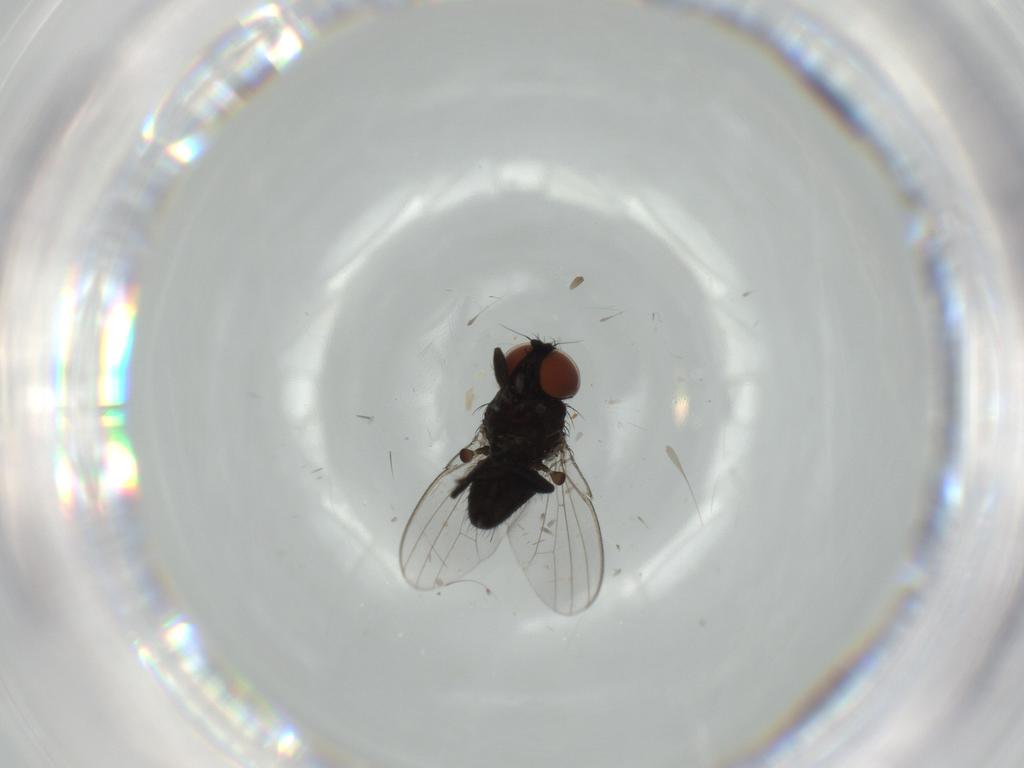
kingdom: Animalia
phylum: Arthropoda
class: Insecta
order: Diptera
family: Milichiidae
